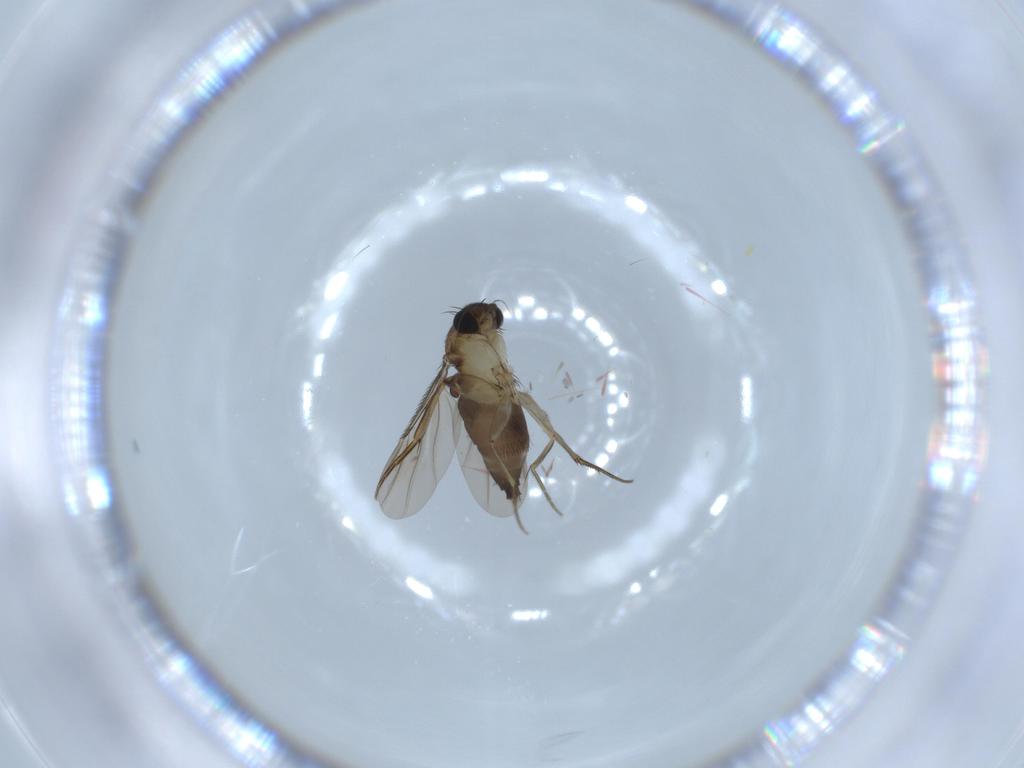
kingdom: Animalia
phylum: Arthropoda
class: Insecta
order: Diptera
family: Phoridae
